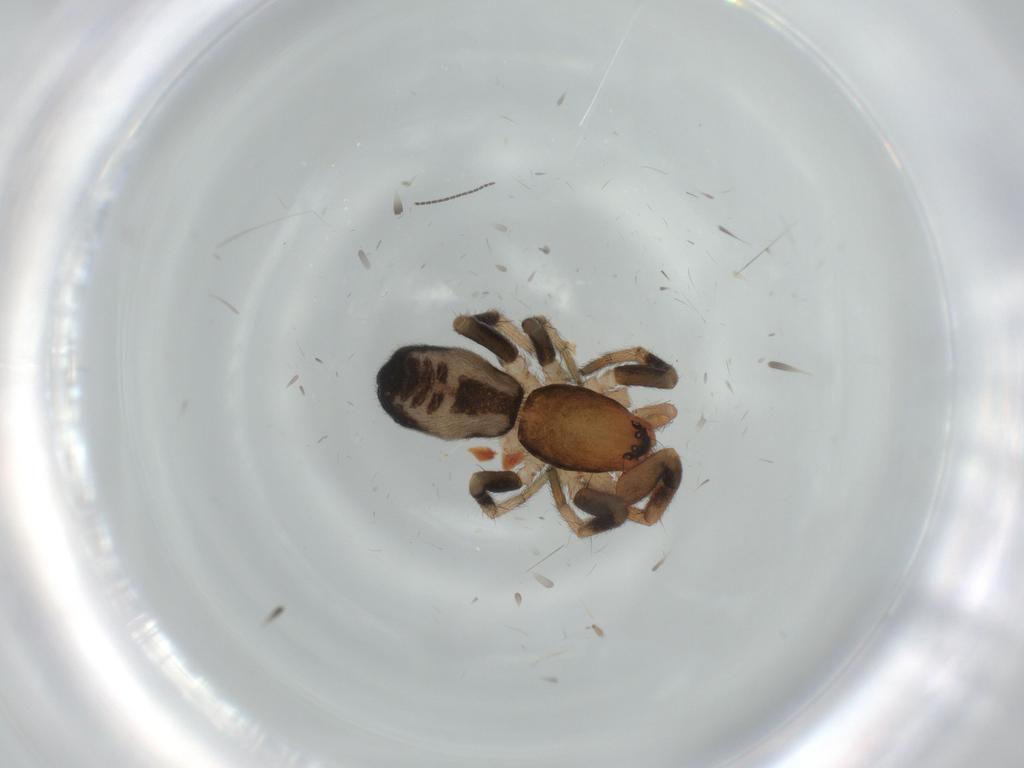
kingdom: Animalia
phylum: Arthropoda
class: Arachnida
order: Araneae
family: Gnaphosidae
